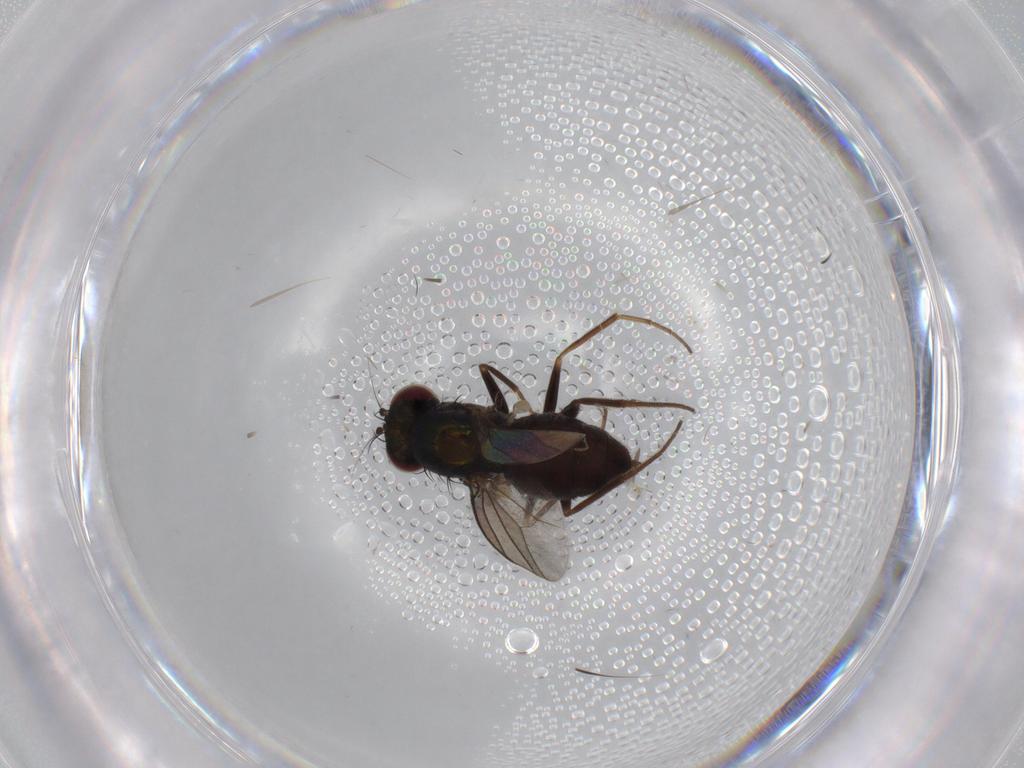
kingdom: Animalia
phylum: Arthropoda
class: Insecta
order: Diptera
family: Dolichopodidae
